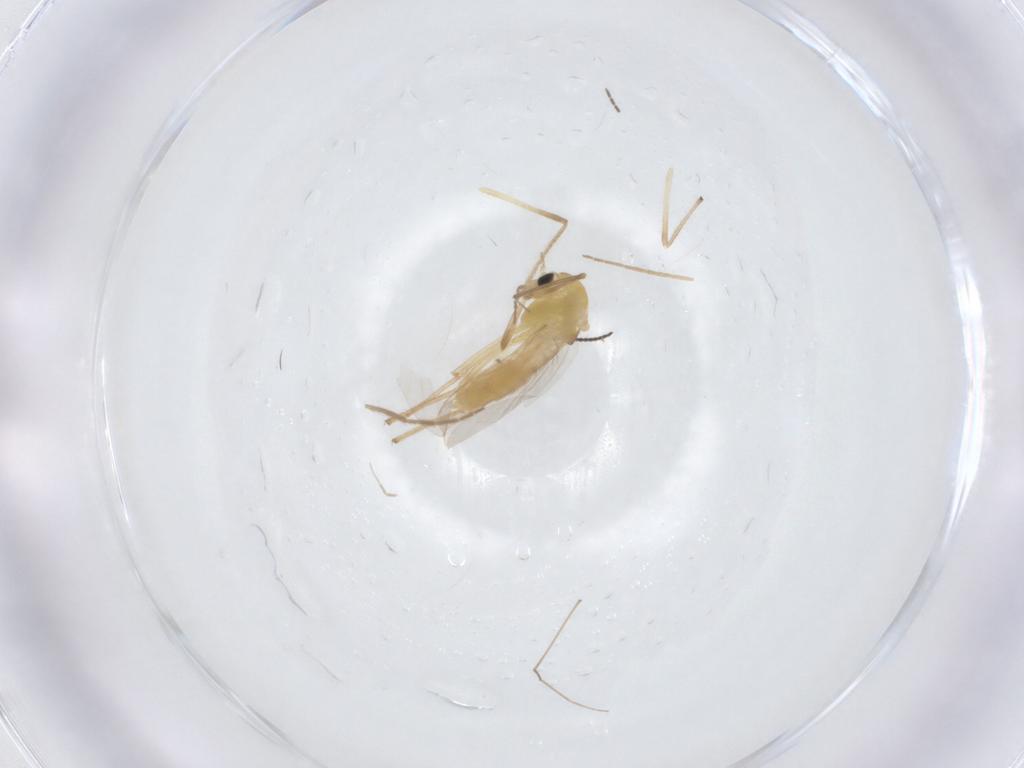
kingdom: Animalia
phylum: Arthropoda
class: Insecta
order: Diptera
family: Chironomidae
